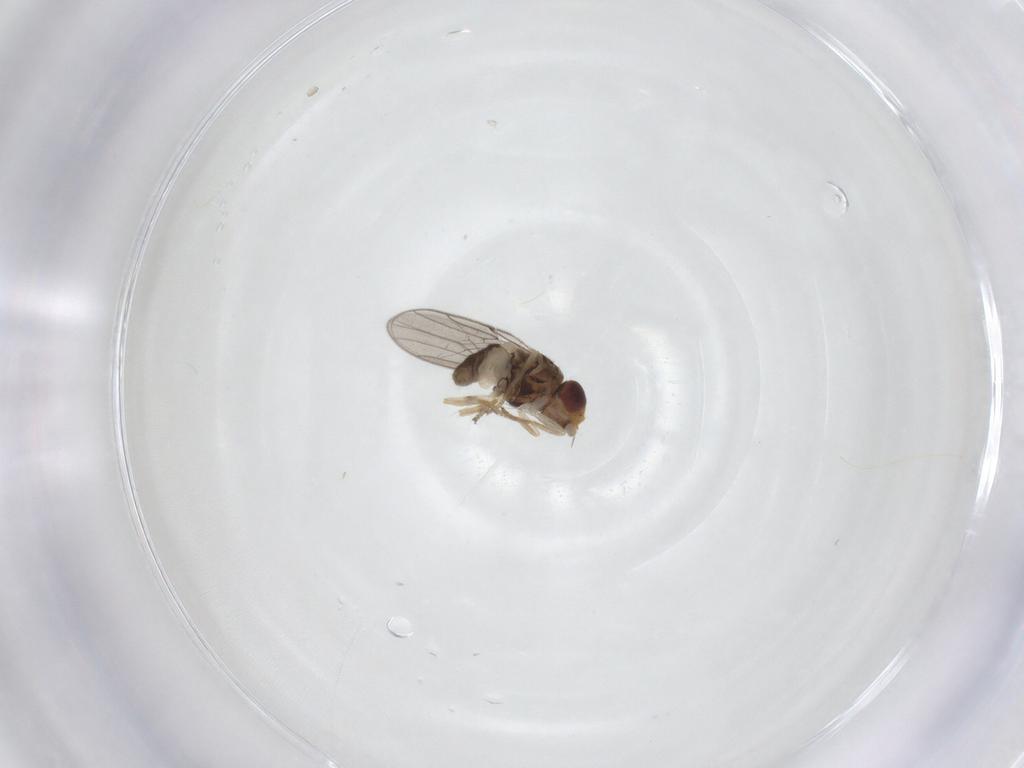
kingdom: Animalia
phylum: Arthropoda
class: Insecta
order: Diptera
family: Chloropidae
